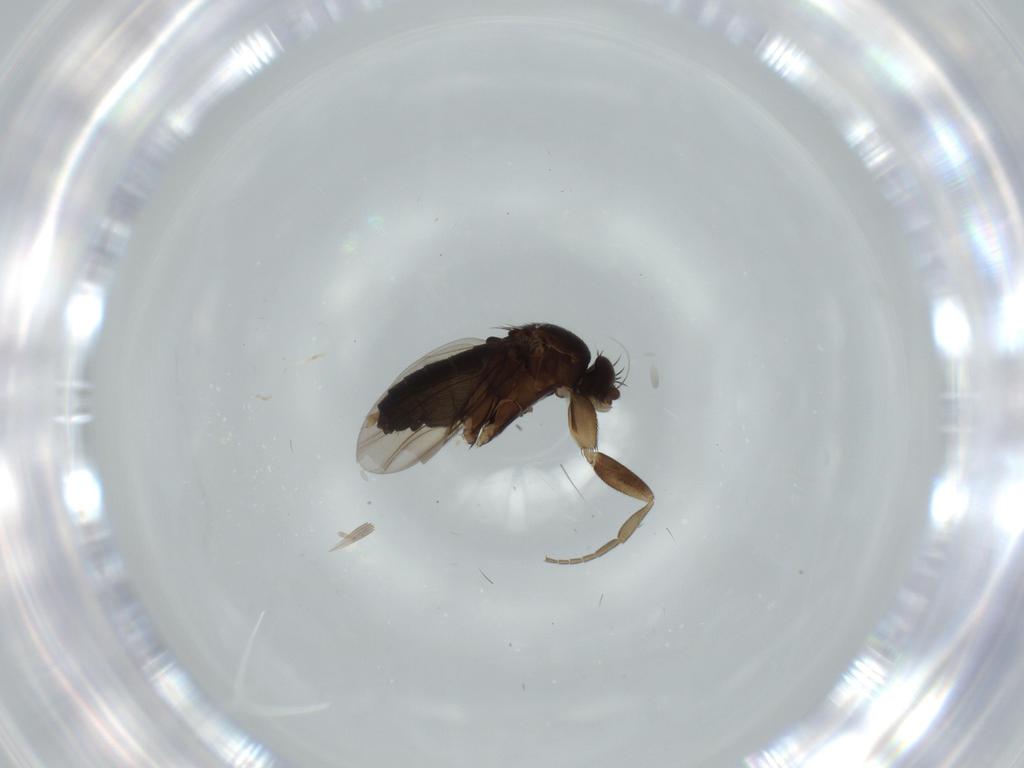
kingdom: Animalia
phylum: Arthropoda
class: Insecta
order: Diptera
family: Phoridae
